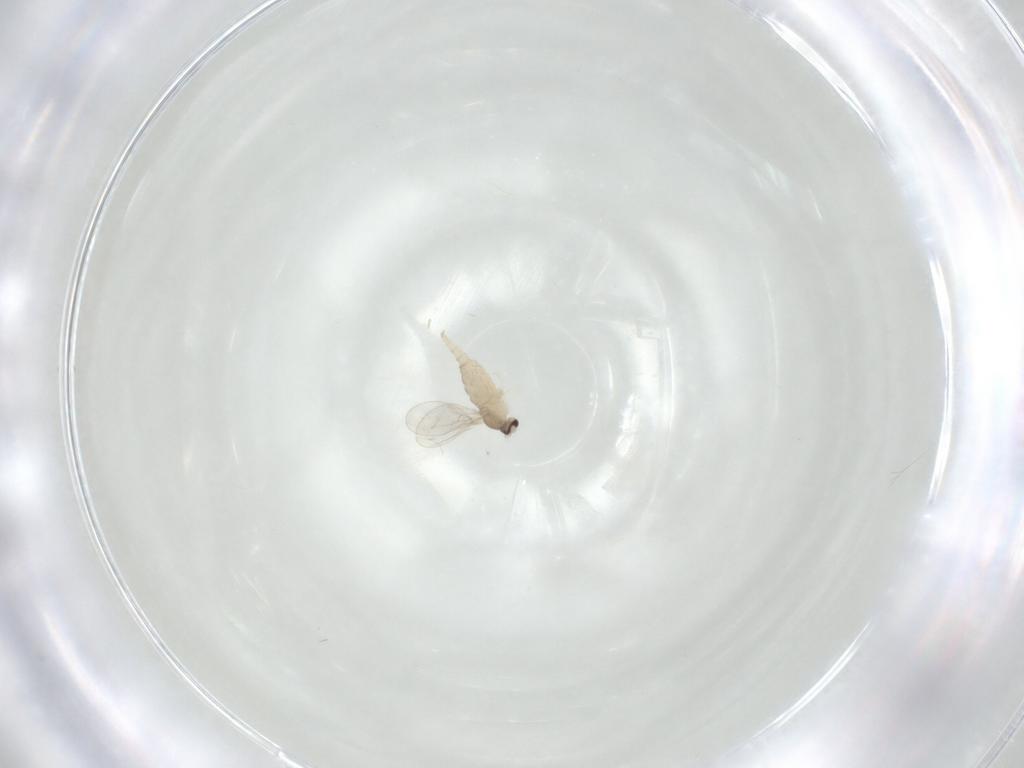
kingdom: Animalia
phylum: Arthropoda
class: Insecta
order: Diptera
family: Cecidomyiidae
